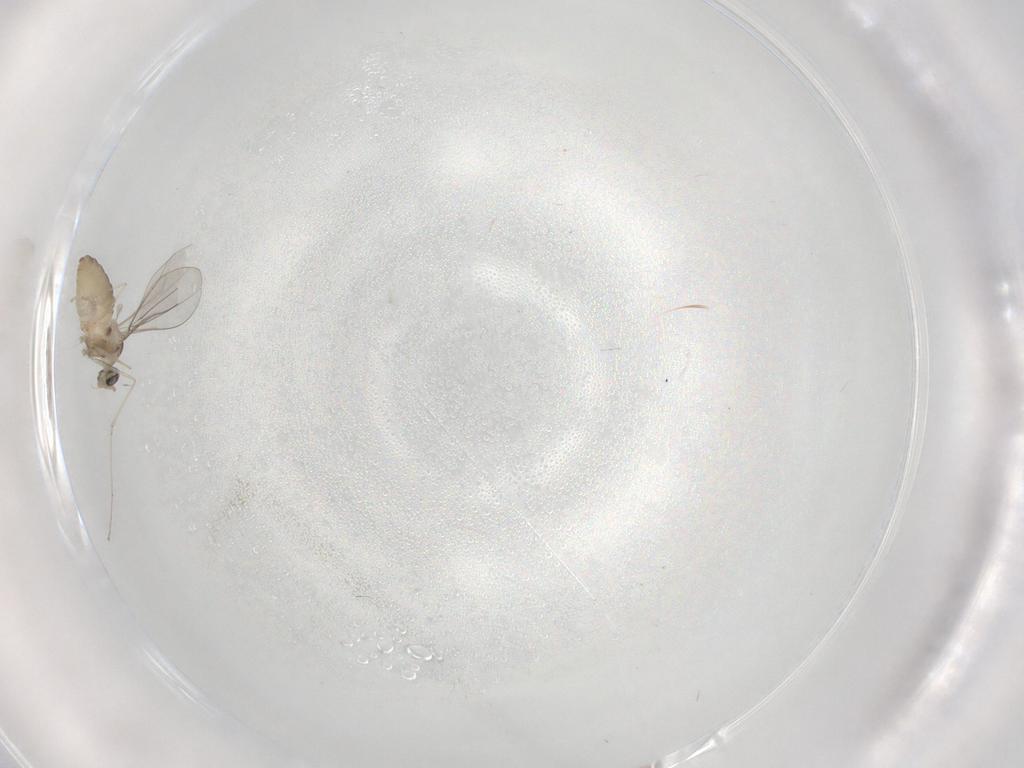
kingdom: Animalia
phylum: Arthropoda
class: Insecta
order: Diptera
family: Cecidomyiidae
